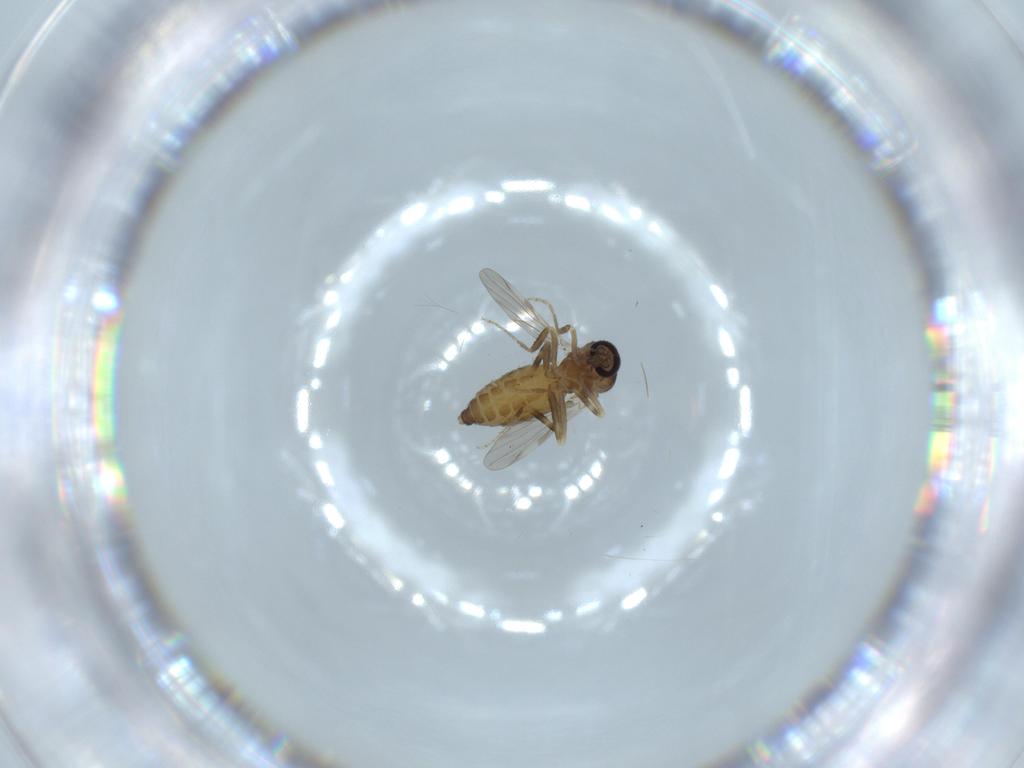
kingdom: Animalia
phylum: Arthropoda
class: Insecta
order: Diptera
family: Ceratopogonidae
